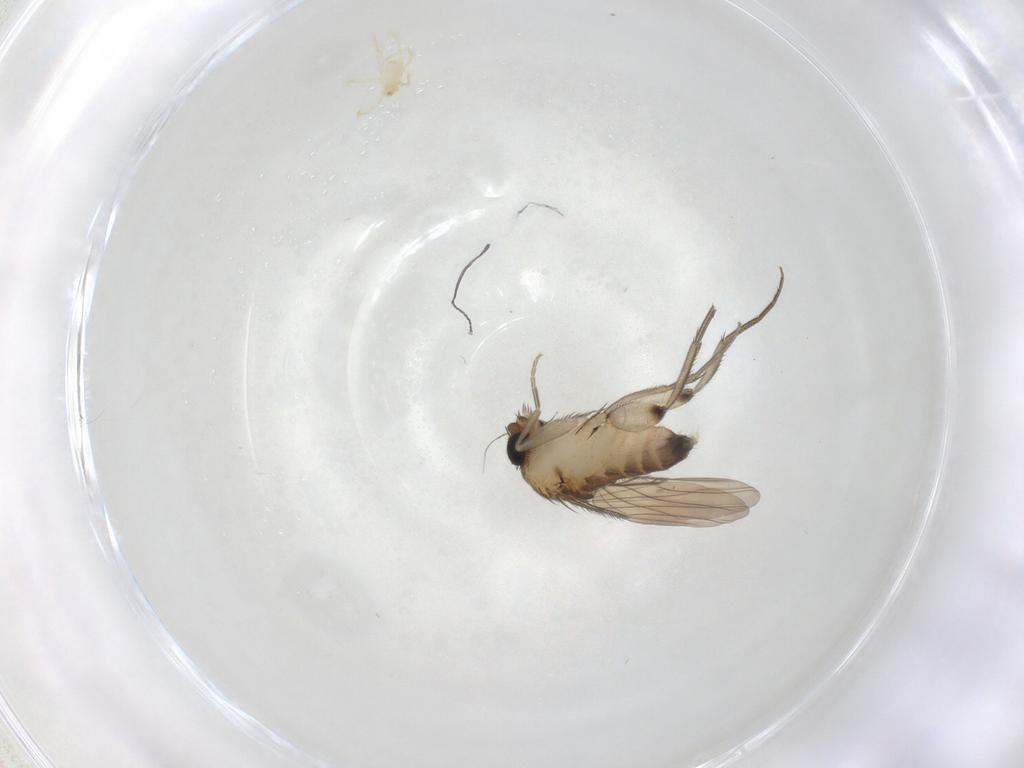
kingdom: Animalia
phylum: Arthropoda
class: Insecta
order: Diptera
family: Phoridae
